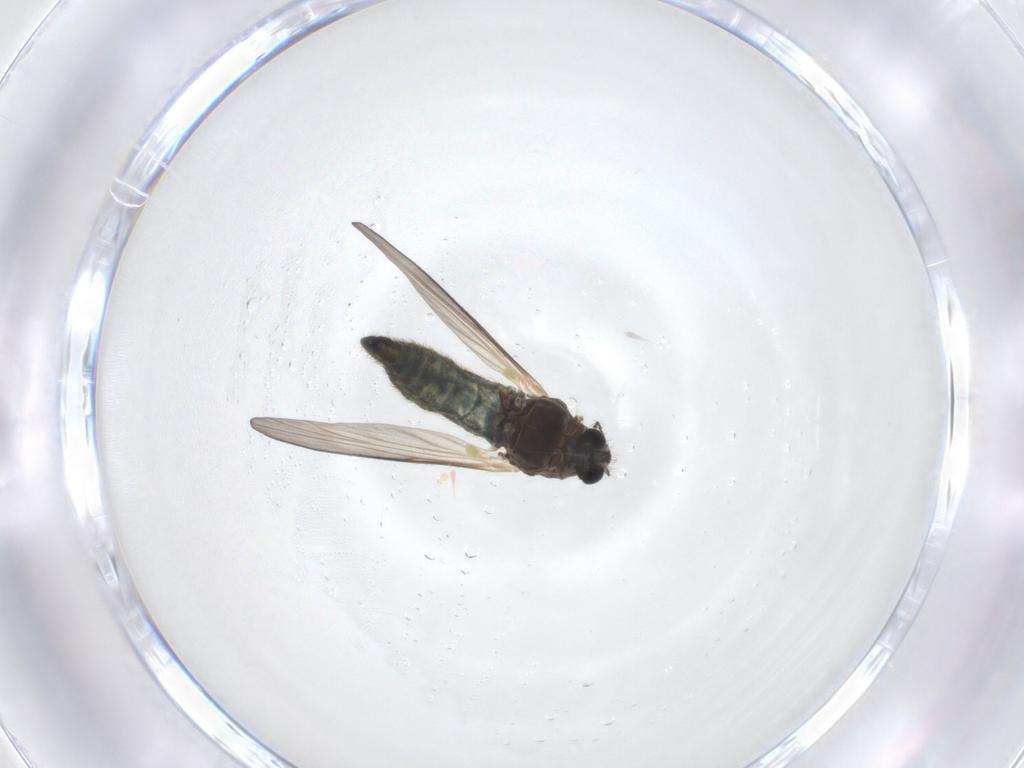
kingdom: Animalia
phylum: Arthropoda
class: Insecta
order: Diptera
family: Chironomidae
